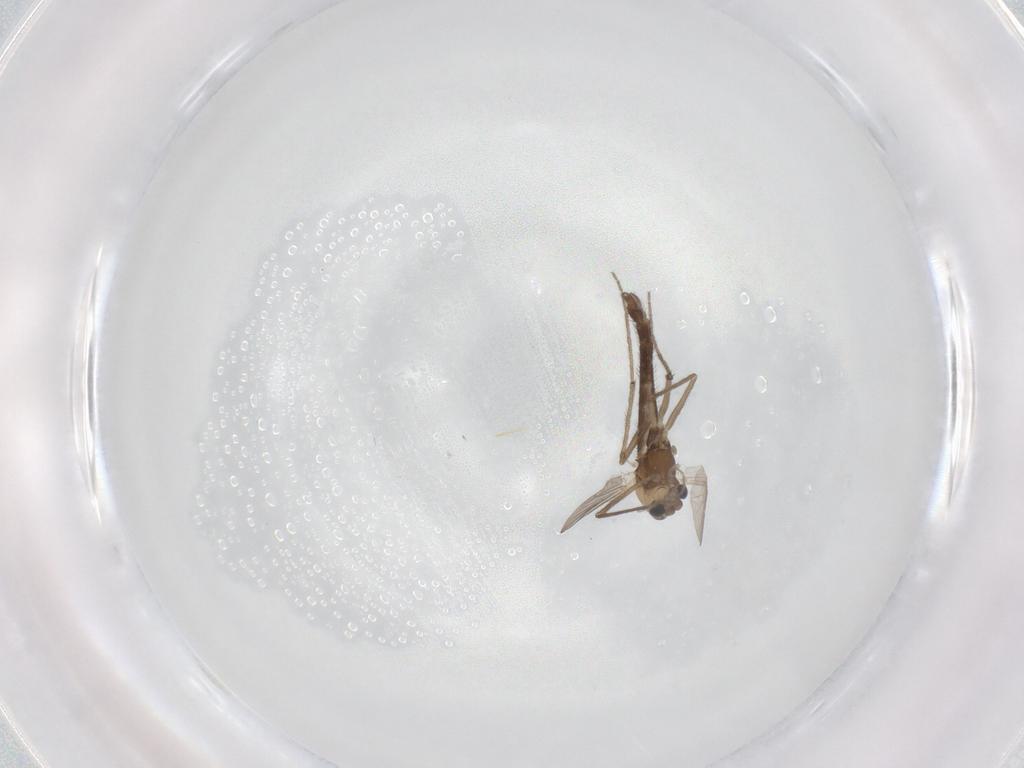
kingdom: Animalia
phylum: Arthropoda
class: Insecta
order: Diptera
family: Chironomidae
